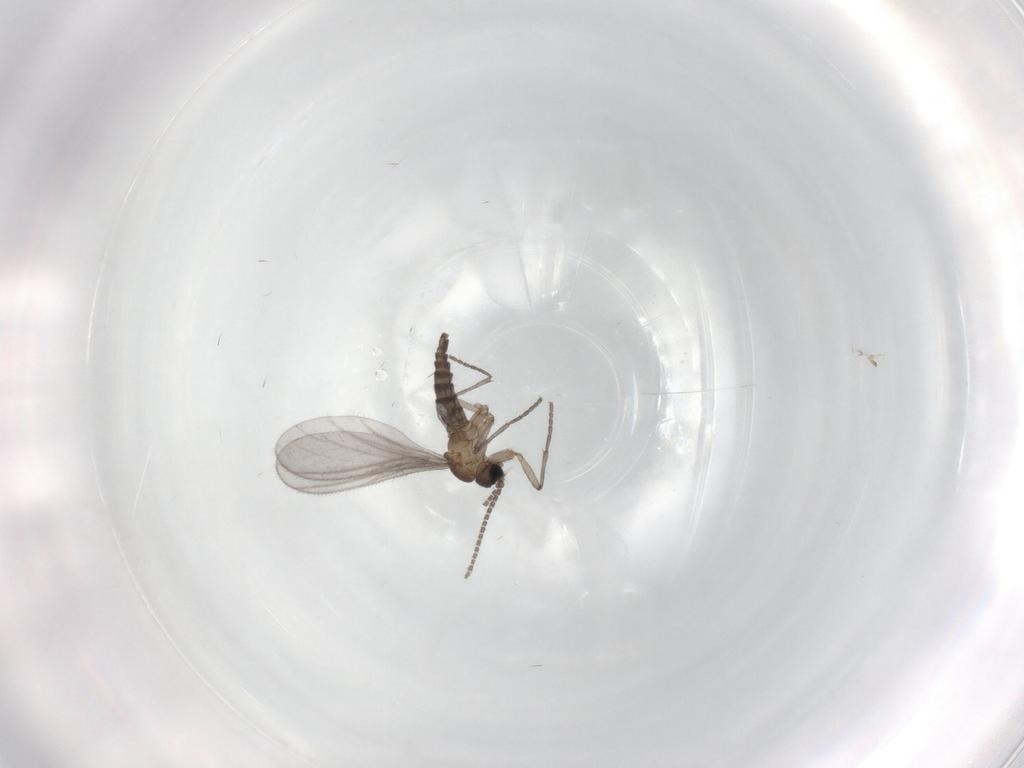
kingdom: Animalia
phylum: Arthropoda
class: Insecta
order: Diptera
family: Sciaridae
